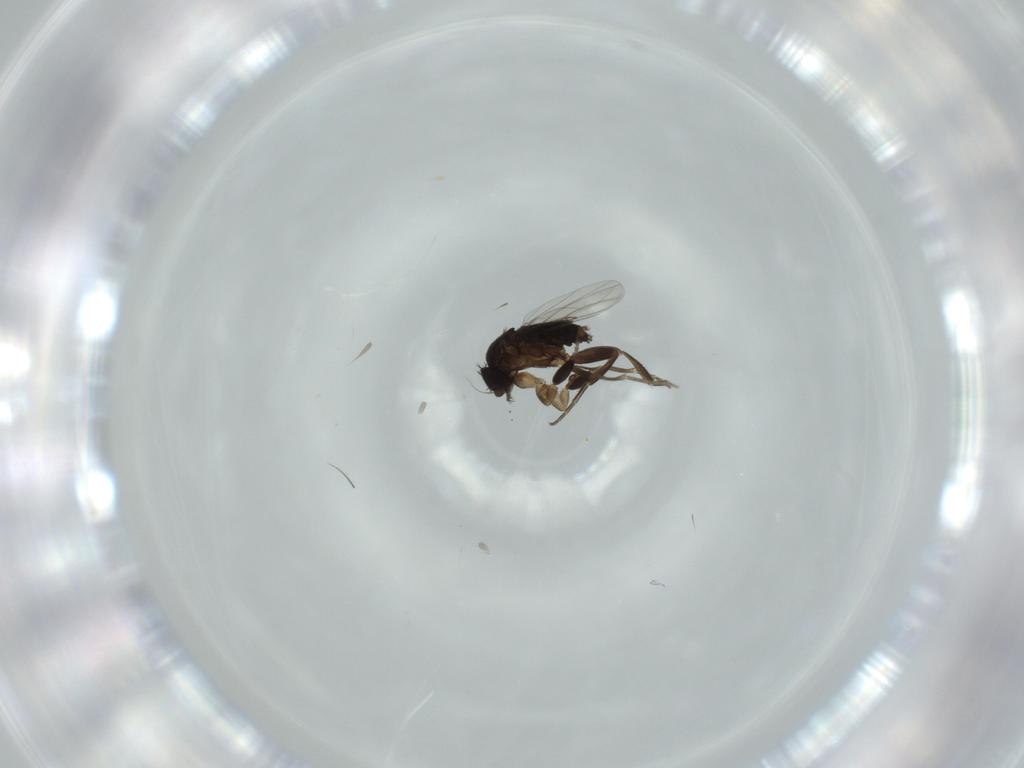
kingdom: Animalia
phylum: Arthropoda
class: Insecta
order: Diptera
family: Phoridae
